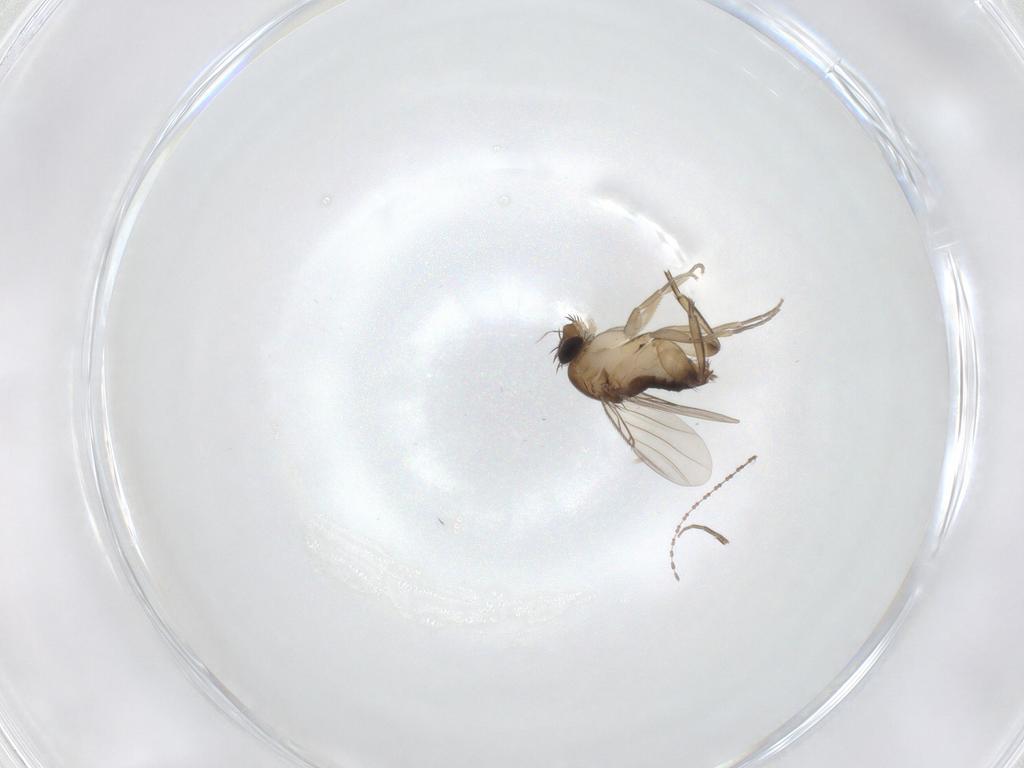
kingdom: Animalia
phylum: Arthropoda
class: Insecta
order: Diptera
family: Phoridae
